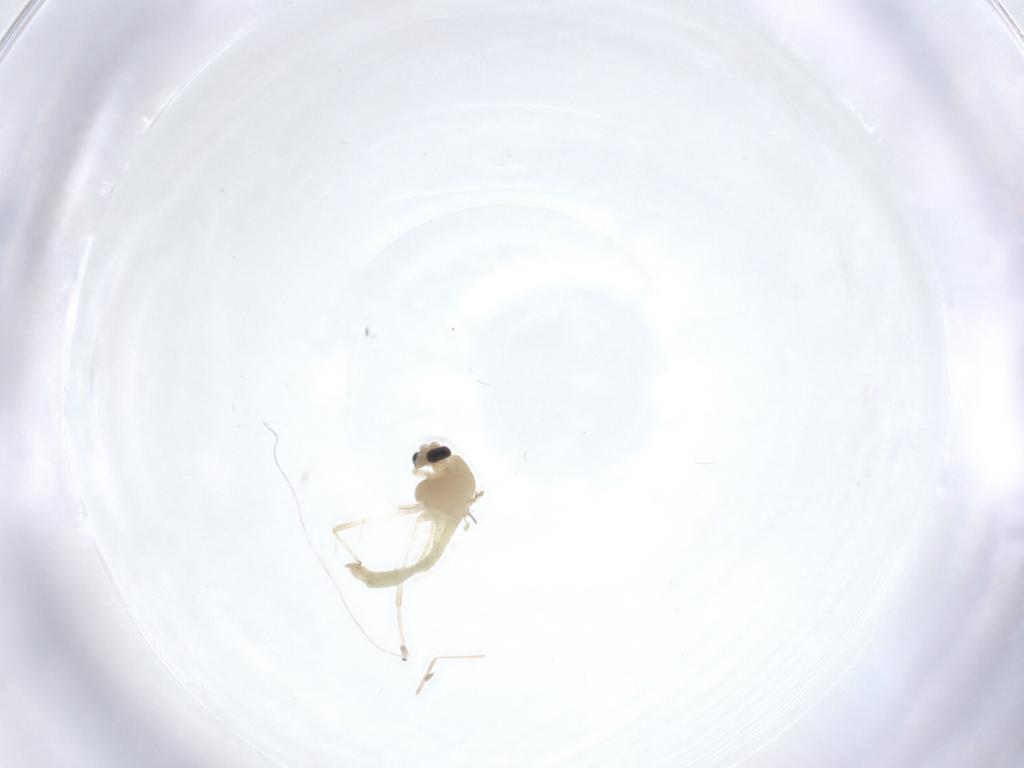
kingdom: Animalia
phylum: Arthropoda
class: Insecta
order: Diptera
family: Chironomidae
